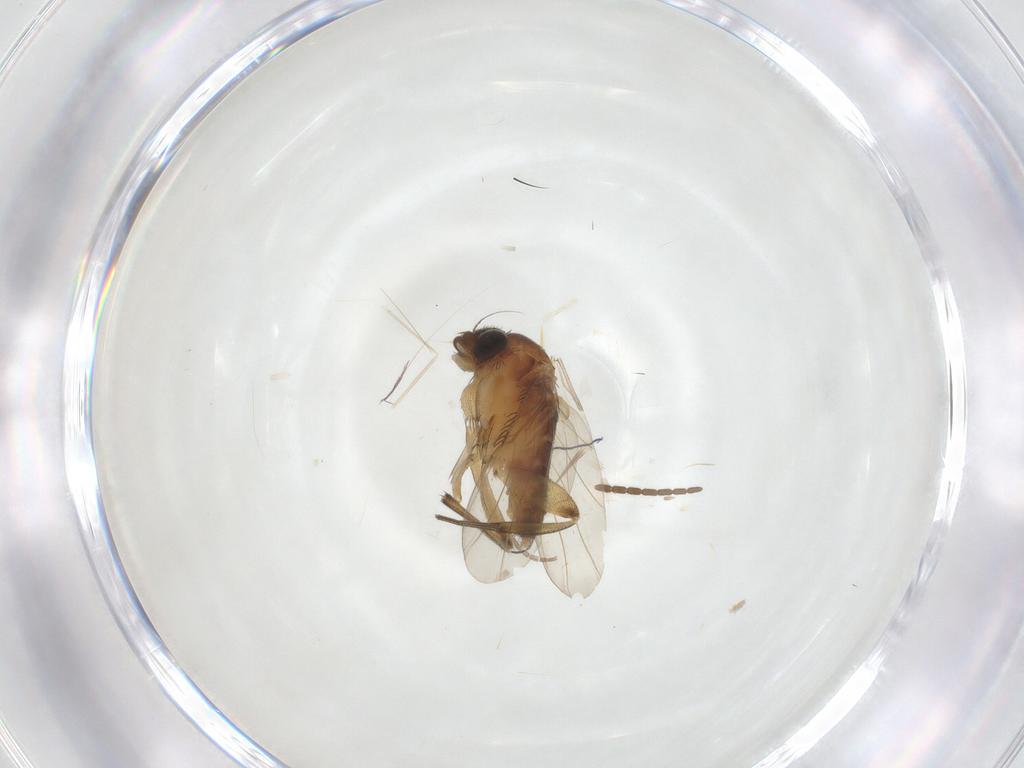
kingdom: Animalia
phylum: Arthropoda
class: Insecta
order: Diptera
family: Phoridae
